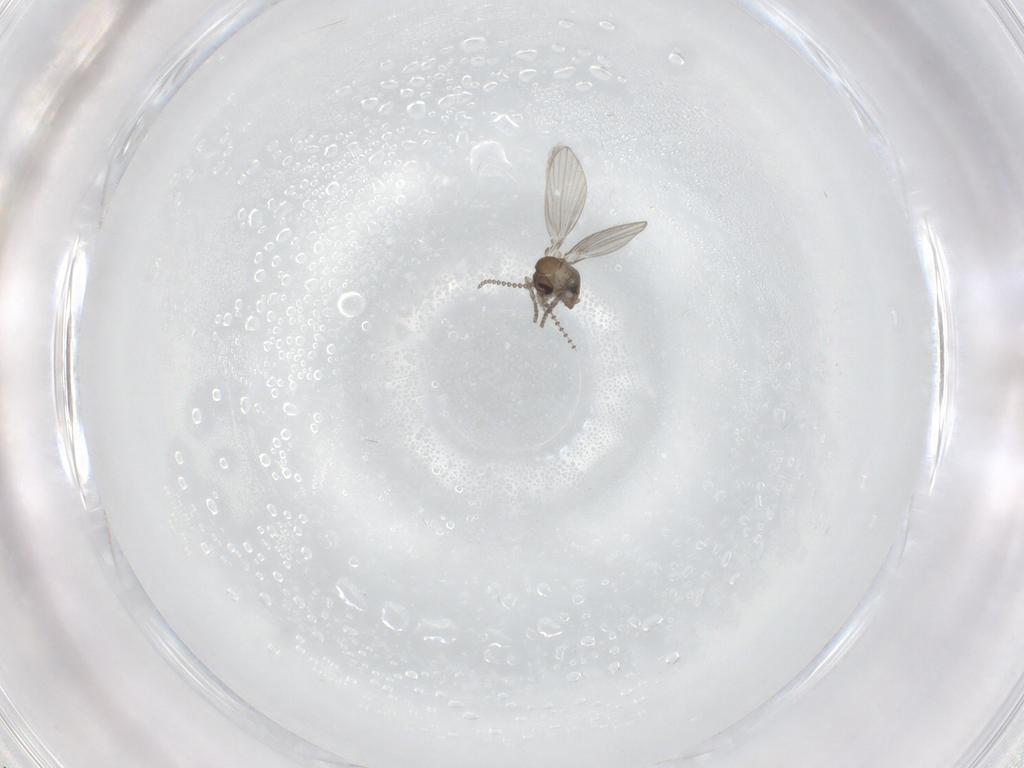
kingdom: Animalia
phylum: Arthropoda
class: Insecta
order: Diptera
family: Psychodidae
